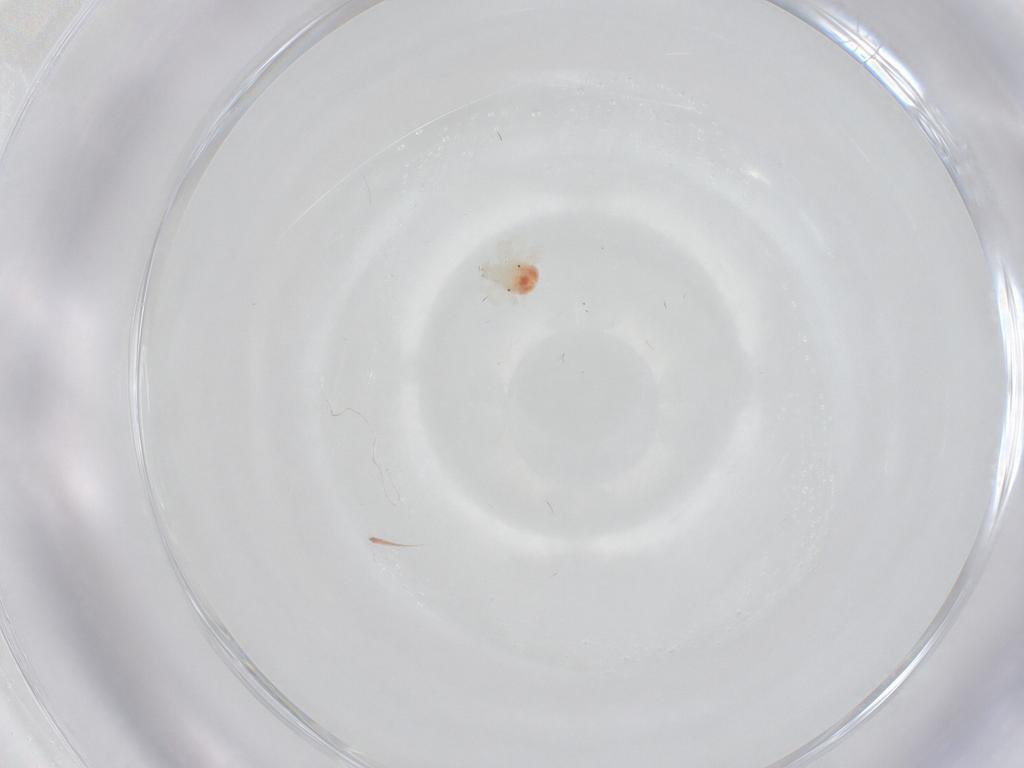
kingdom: Animalia
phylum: Arthropoda
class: Arachnida
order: Trombidiformes
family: Anystidae
